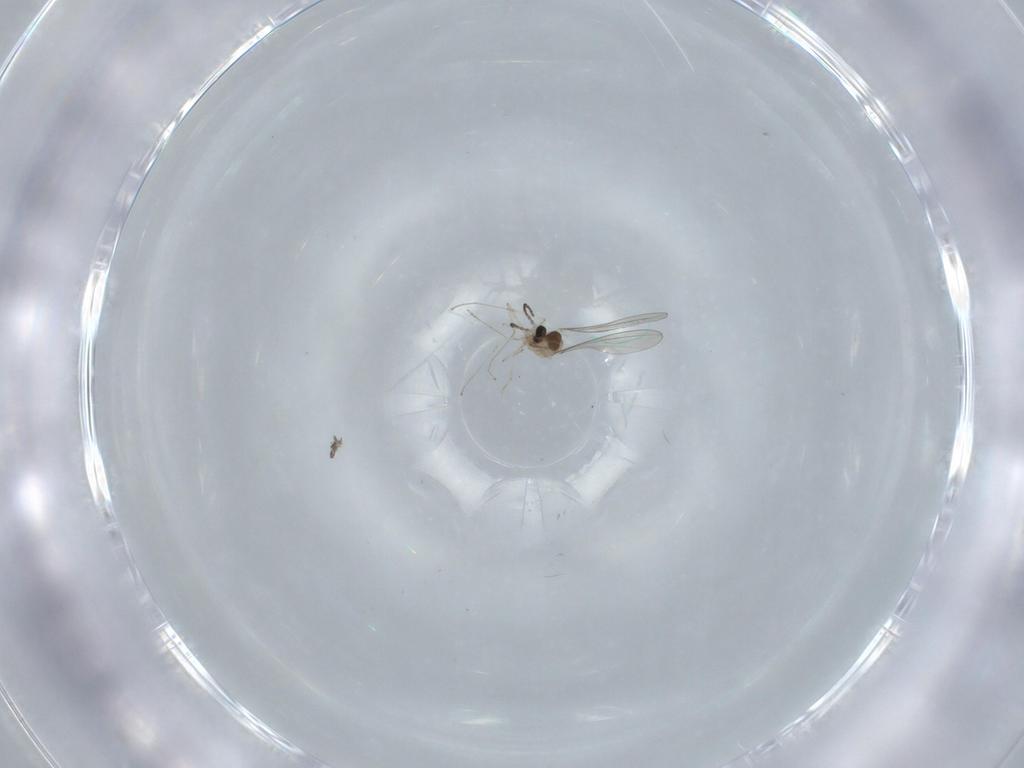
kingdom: Animalia
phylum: Arthropoda
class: Insecta
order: Diptera
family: Cecidomyiidae
